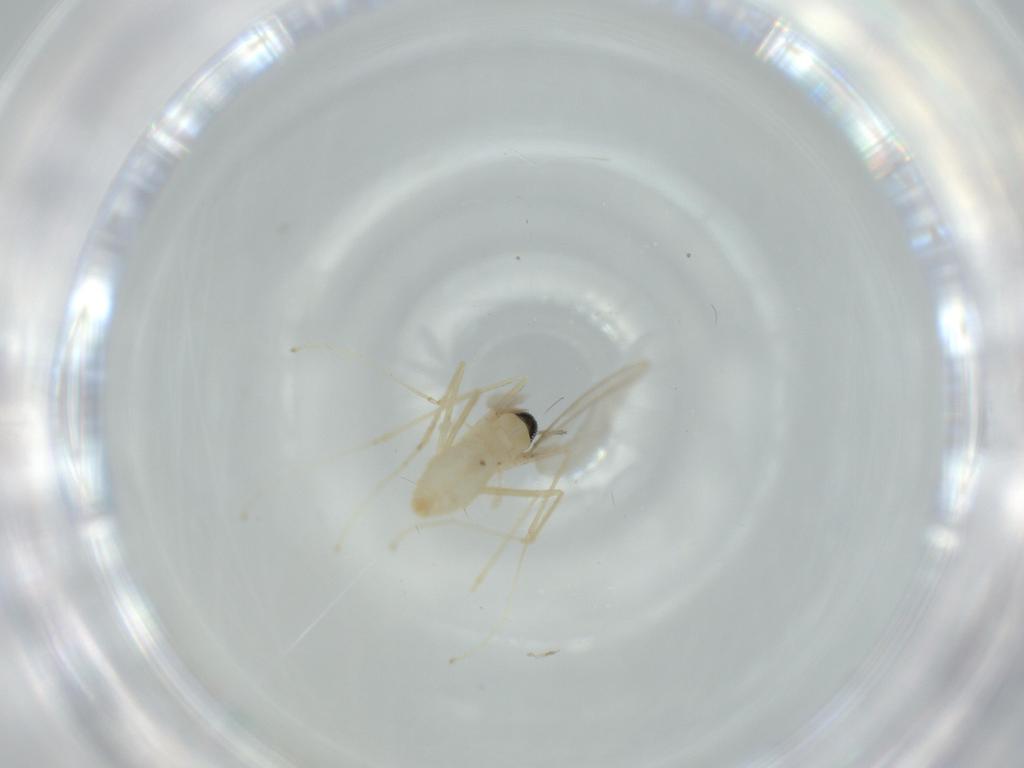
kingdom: Animalia
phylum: Arthropoda
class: Insecta
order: Diptera
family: Cecidomyiidae
